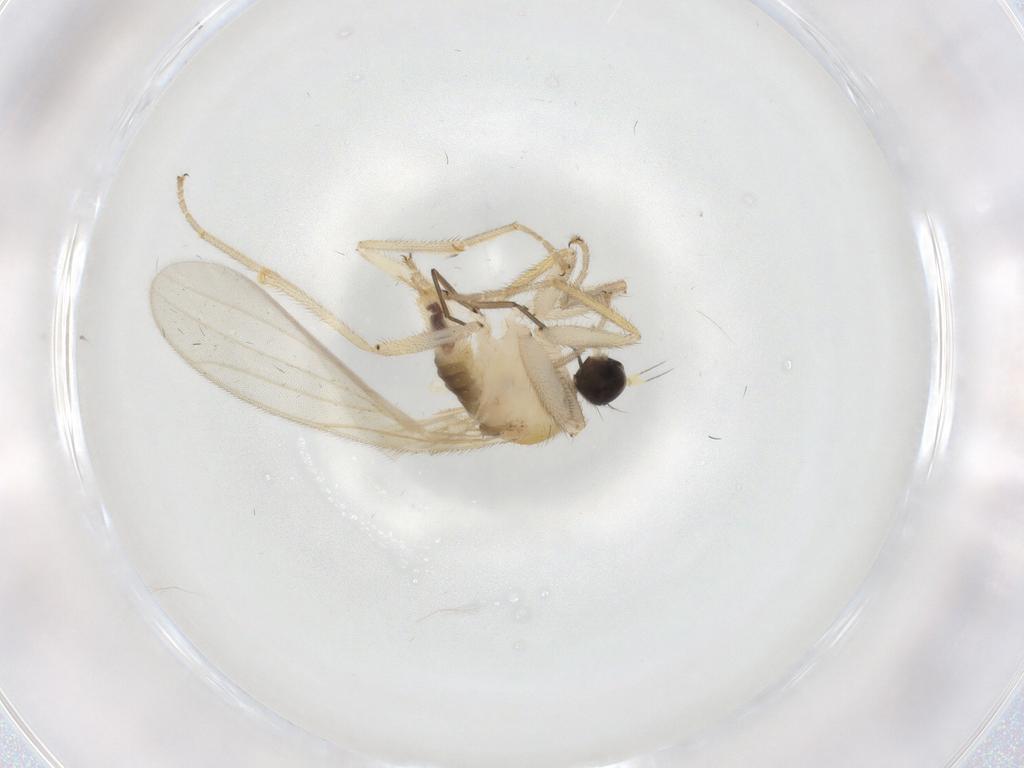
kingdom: Animalia
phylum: Arthropoda
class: Insecta
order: Diptera
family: Hybotidae
